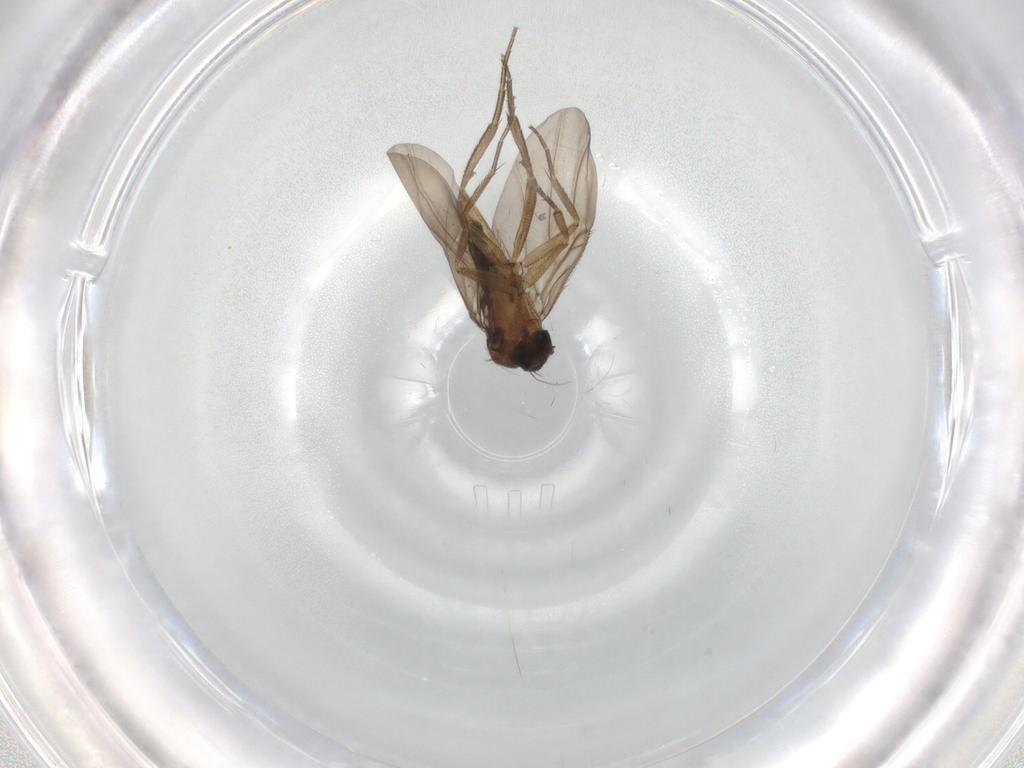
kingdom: Animalia
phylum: Arthropoda
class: Insecta
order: Diptera
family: Phoridae
